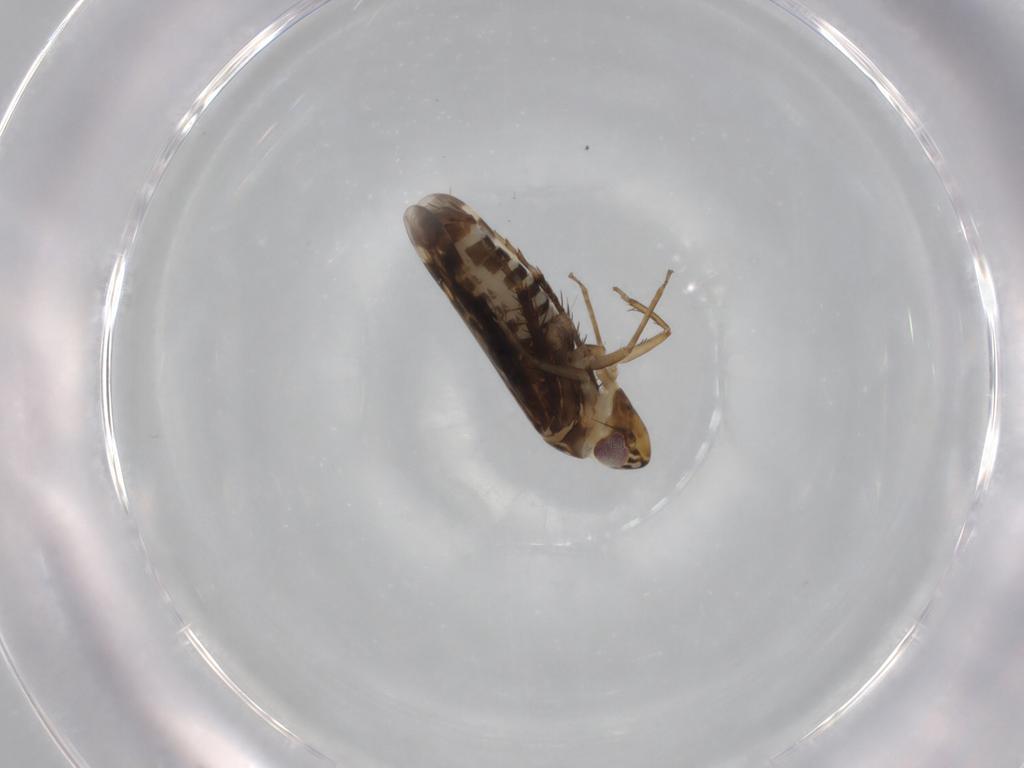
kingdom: Animalia
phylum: Arthropoda
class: Insecta
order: Hemiptera
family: Cicadellidae
